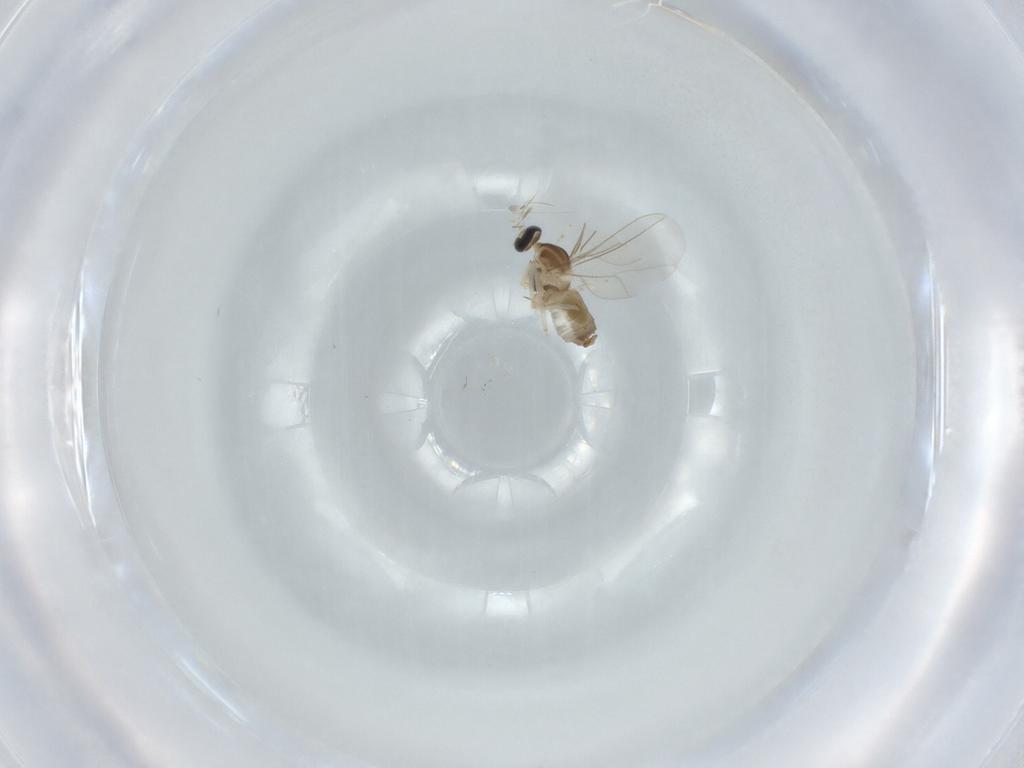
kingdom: Animalia
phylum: Arthropoda
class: Insecta
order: Diptera
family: Cecidomyiidae
